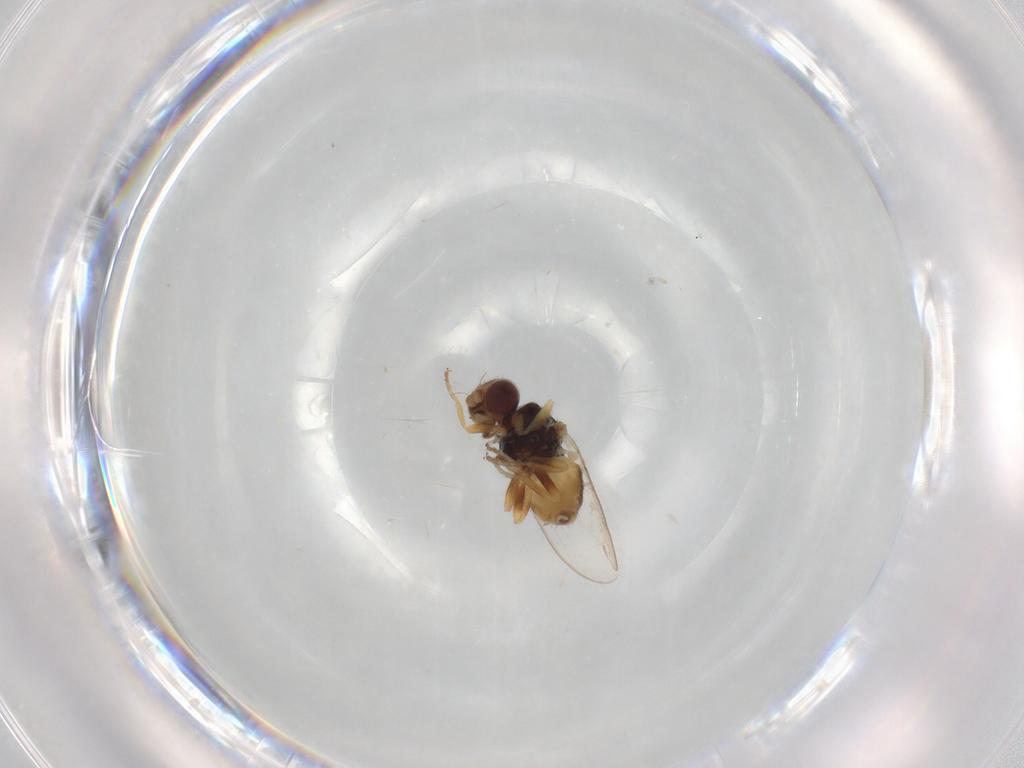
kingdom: Animalia
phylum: Arthropoda
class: Insecta
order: Diptera
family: Chloropidae
